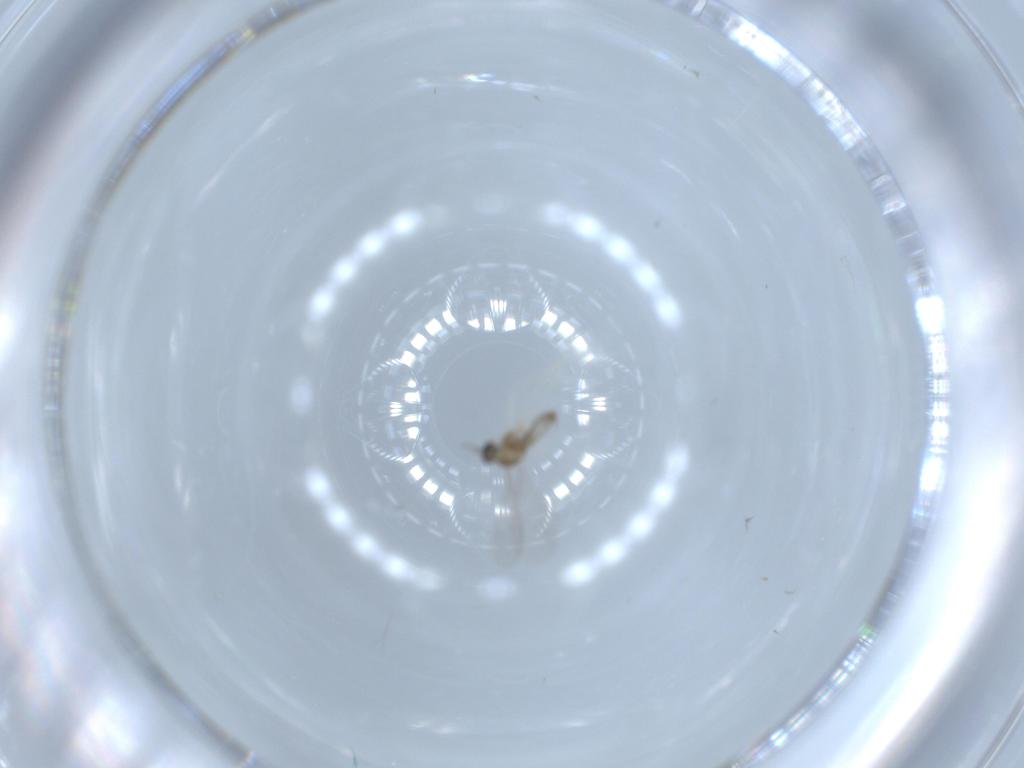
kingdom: Animalia
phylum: Arthropoda
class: Insecta
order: Diptera
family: Cecidomyiidae
